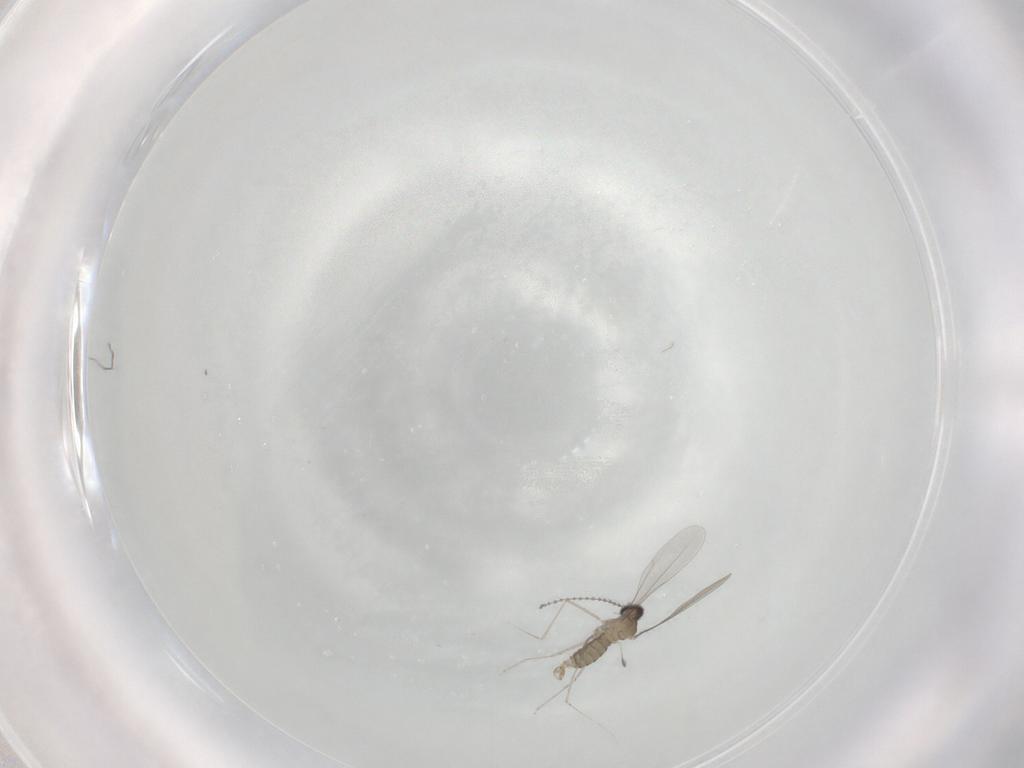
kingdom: Animalia
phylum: Arthropoda
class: Insecta
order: Diptera
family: Cecidomyiidae
